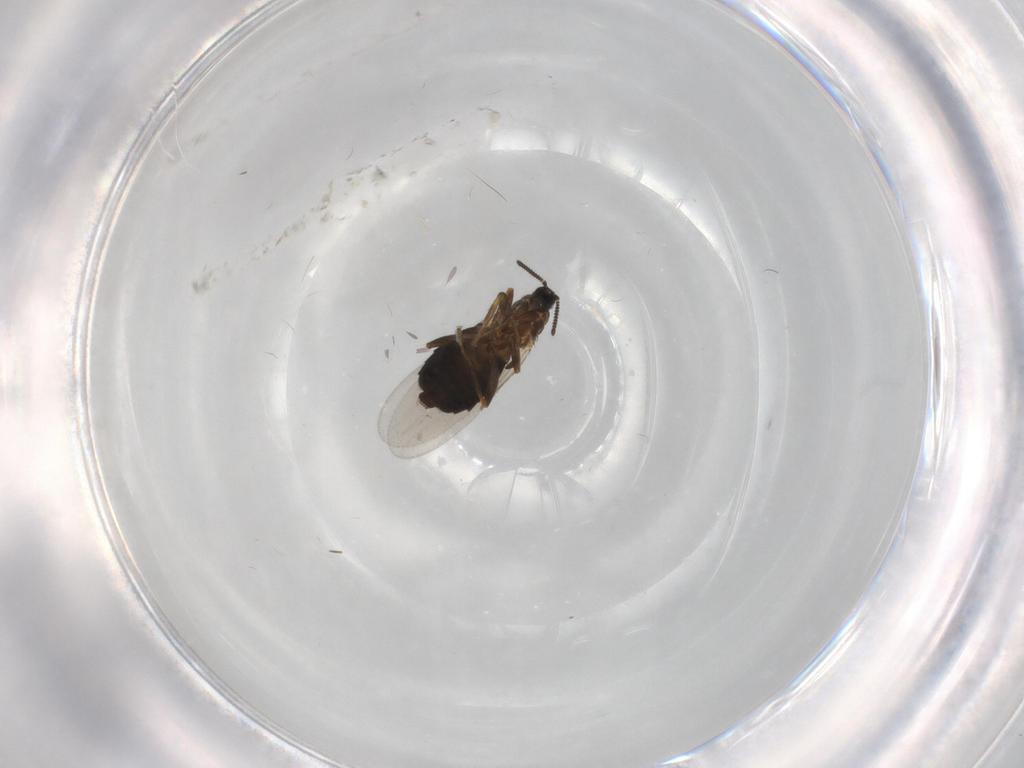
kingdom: Animalia
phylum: Arthropoda
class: Insecta
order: Diptera
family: Scatopsidae
